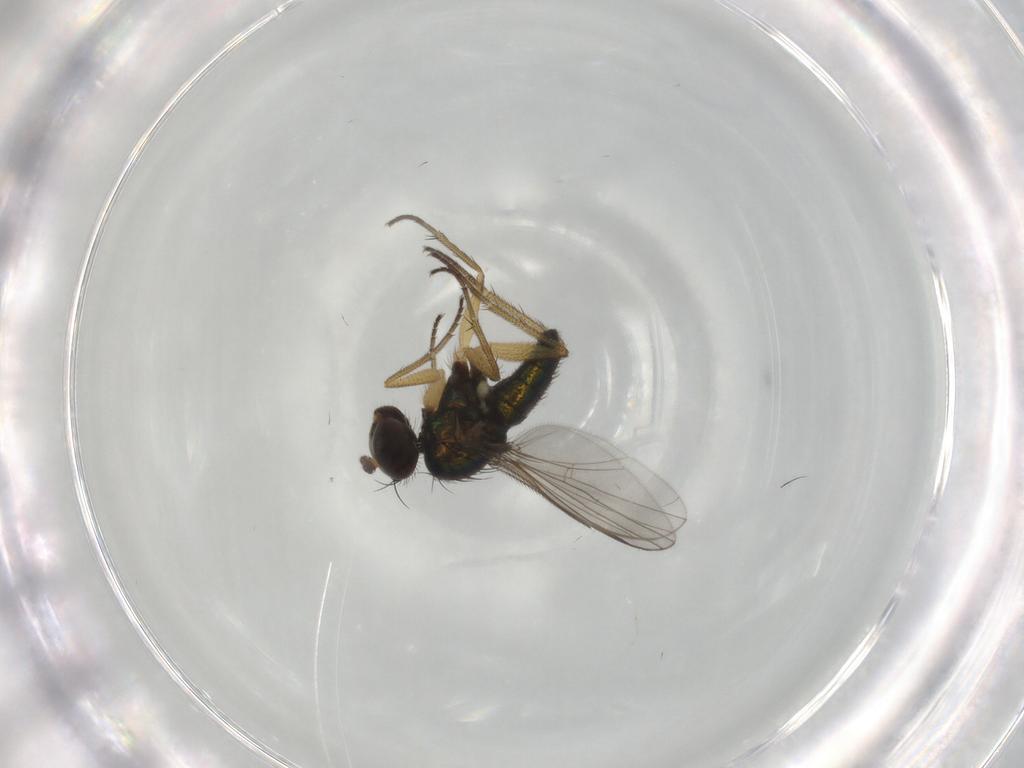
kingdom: Animalia
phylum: Arthropoda
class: Insecta
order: Diptera
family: Dolichopodidae
